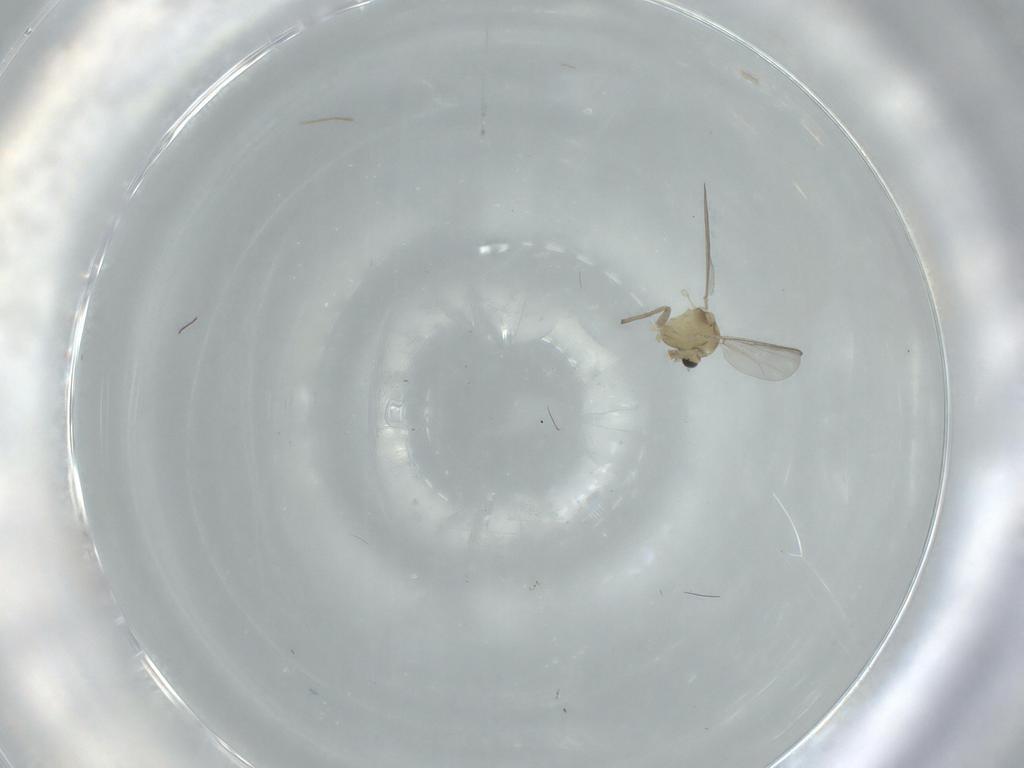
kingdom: Animalia
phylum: Arthropoda
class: Insecta
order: Diptera
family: Chironomidae
